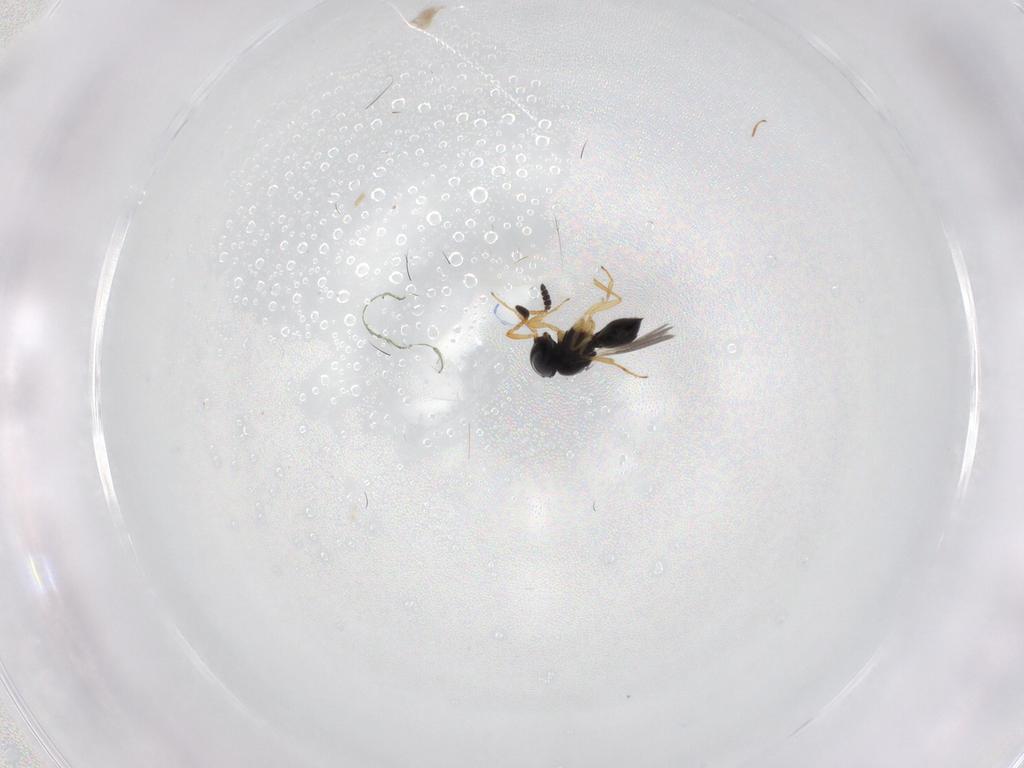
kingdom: Animalia
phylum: Arthropoda
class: Insecta
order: Hymenoptera
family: Scelionidae
